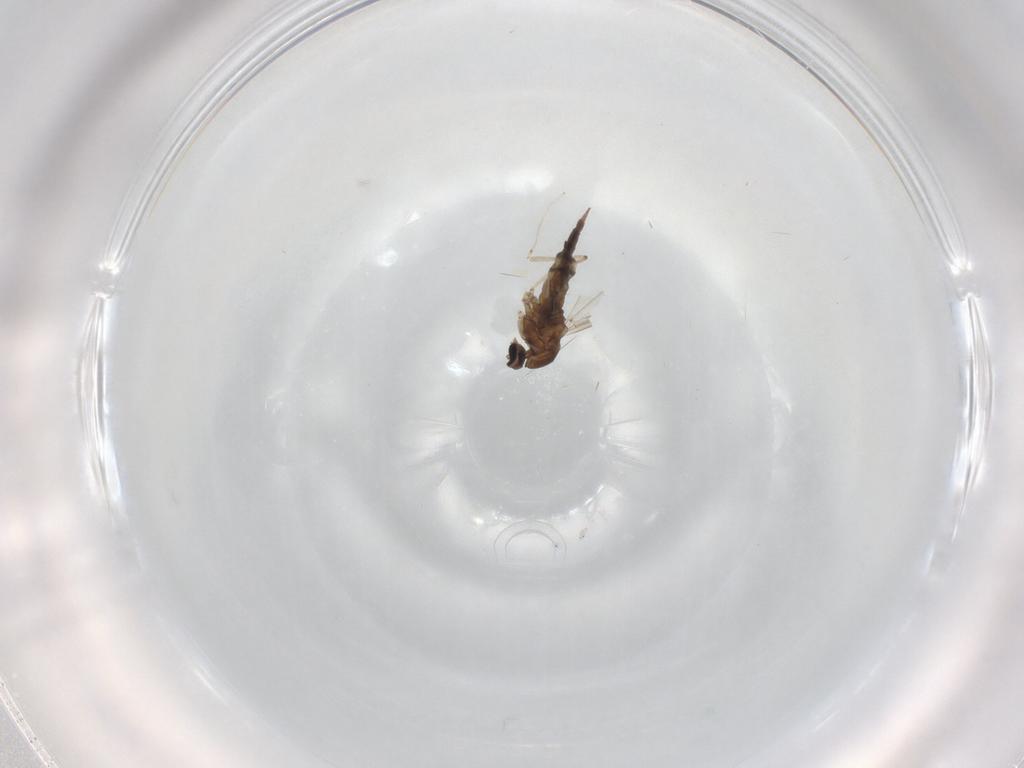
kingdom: Animalia
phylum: Arthropoda
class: Insecta
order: Diptera
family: Cecidomyiidae
